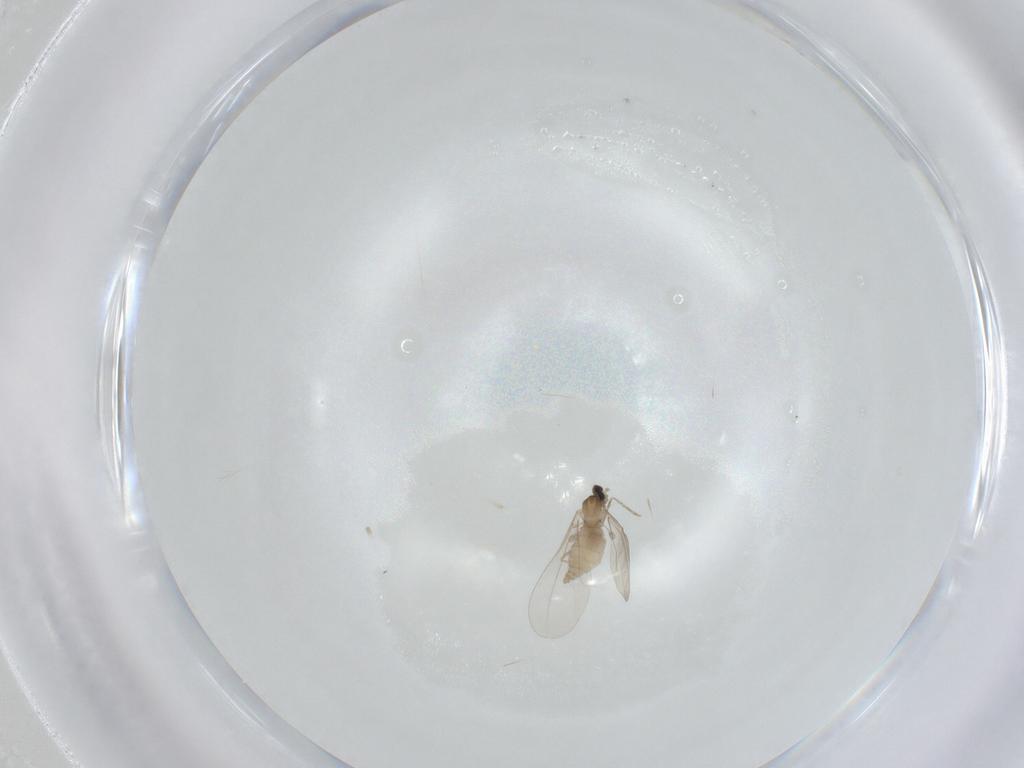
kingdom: Animalia
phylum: Arthropoda
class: Insecta
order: Diptera
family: Cecidomyiidae
